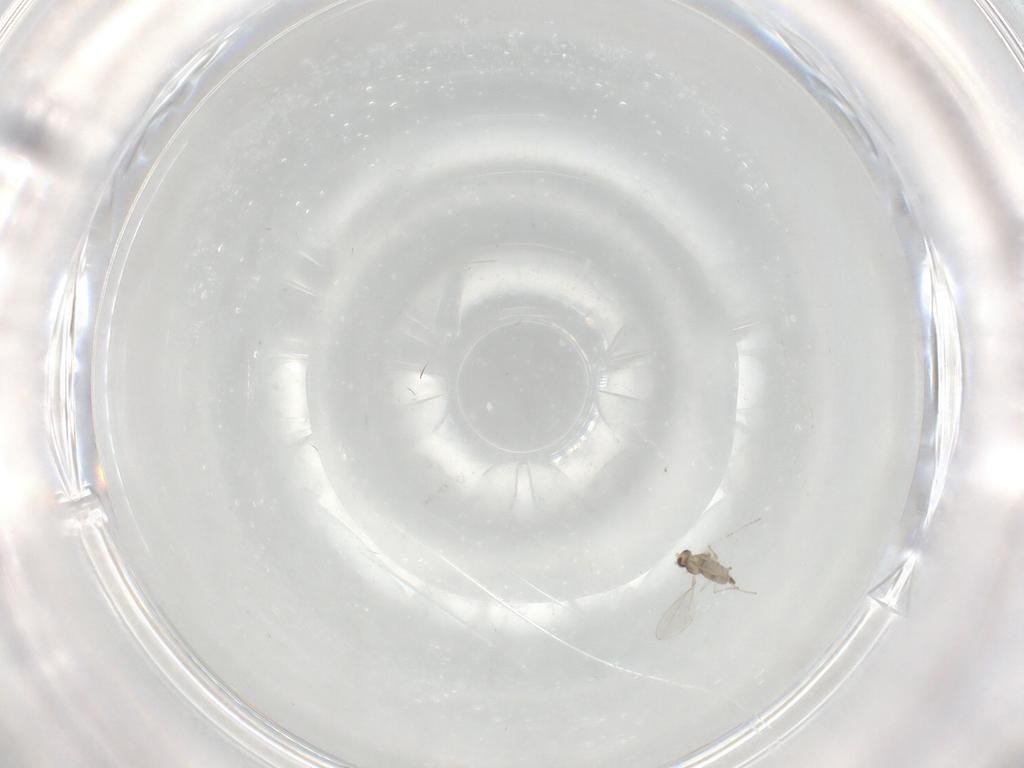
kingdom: Animalia
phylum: Arthropoda
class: Insecta
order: Diptera
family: Cecidomyiidae
